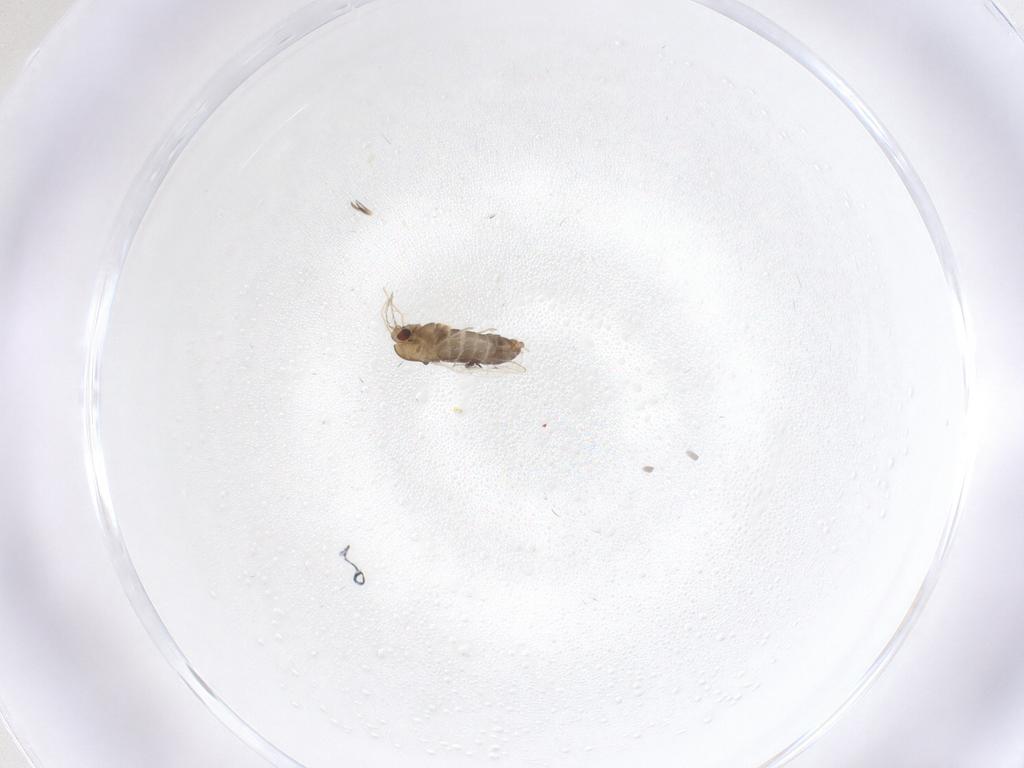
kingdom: Animalia
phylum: Arthropoda
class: Insecta
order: Diptera
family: Chironomidae
